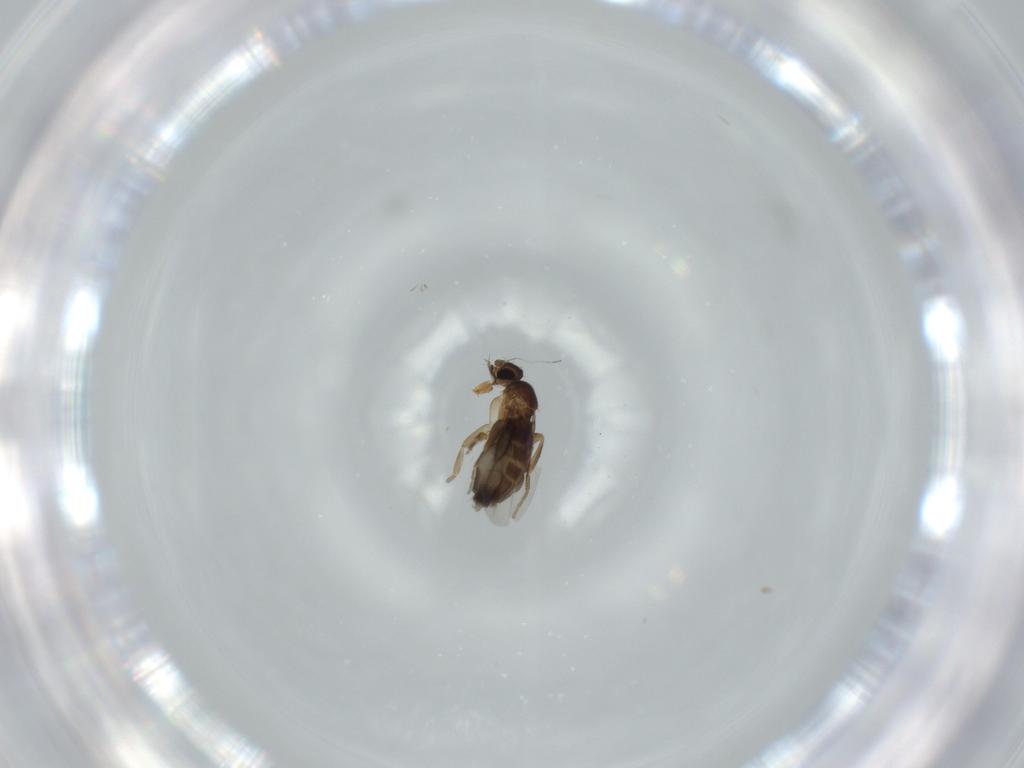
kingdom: Animalia
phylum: Arthropoda
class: Insecta
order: Diptera
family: Phoridae
